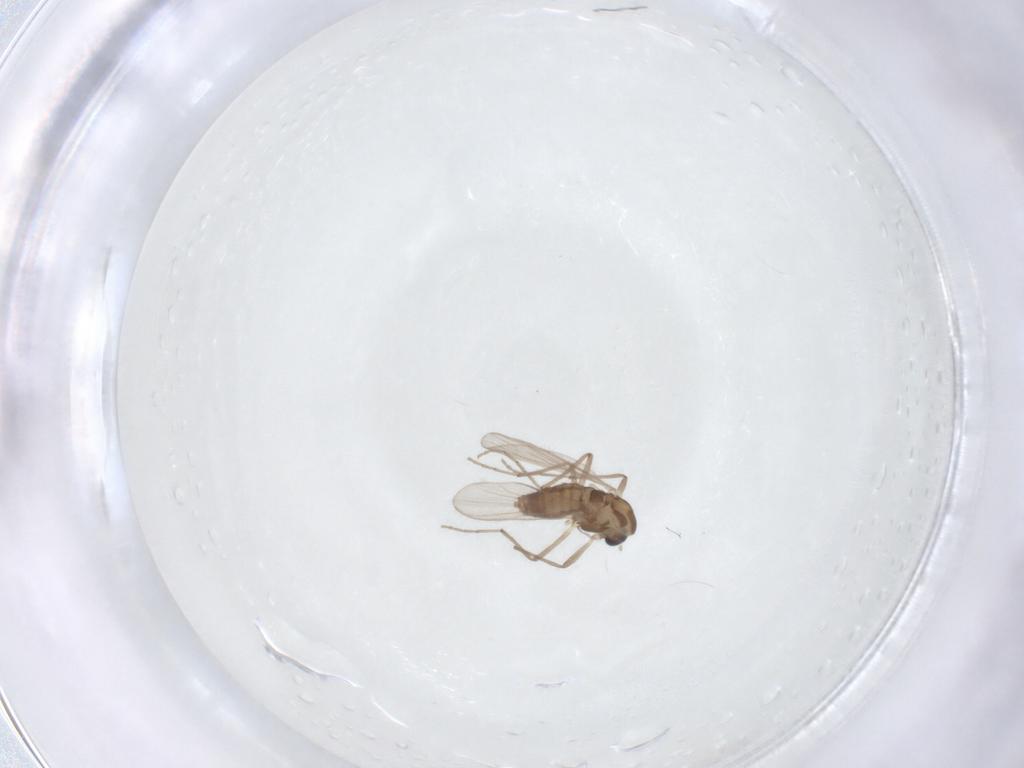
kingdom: Animalia
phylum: Arthropoda
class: Insecta
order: Diptera
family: Chironomidae
